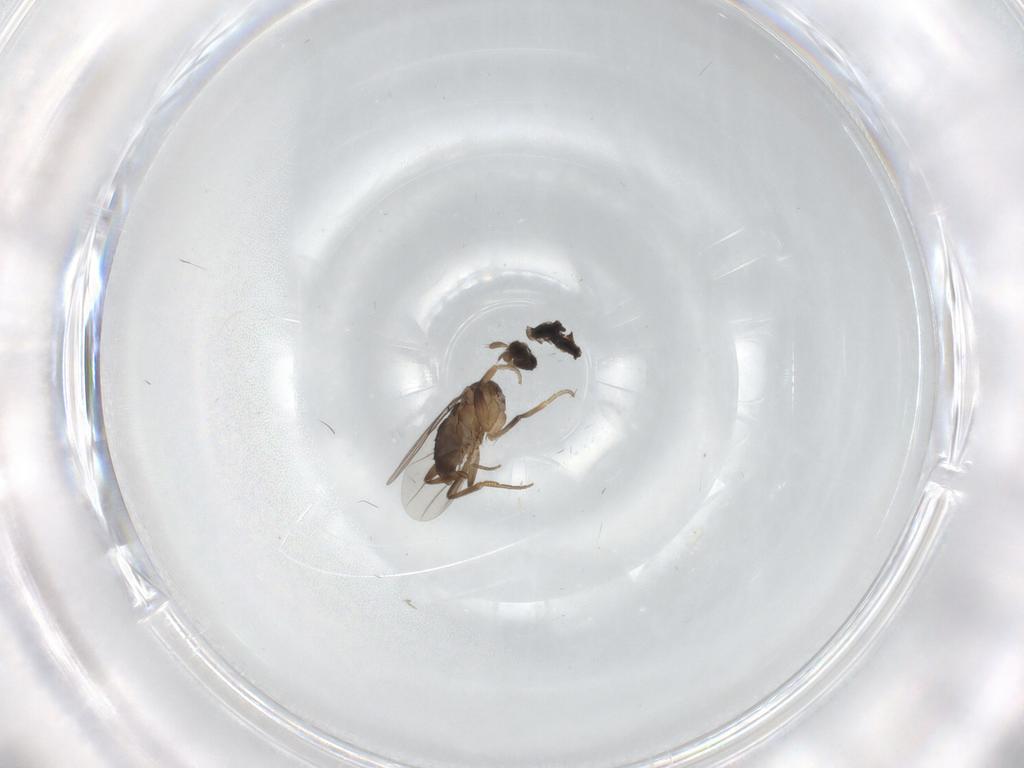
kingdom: Animalia
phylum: Arthropoda
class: Insecta
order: Diptera
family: Phoridae
